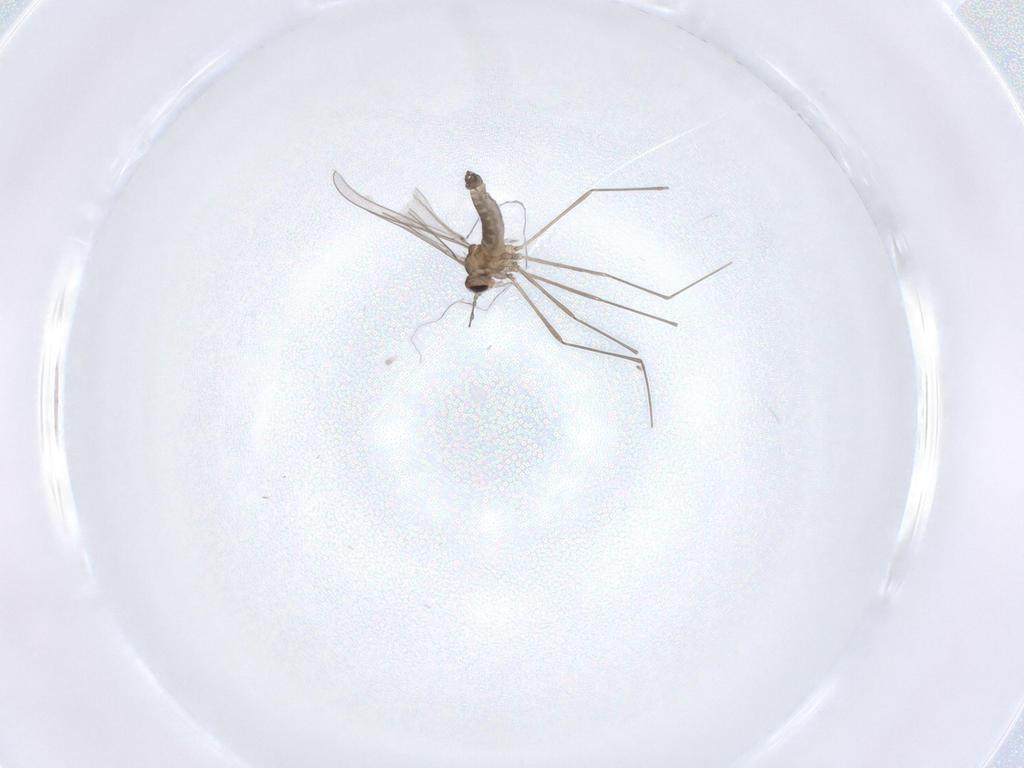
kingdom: Animalia
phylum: Arthropoda
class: Insecta
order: Diptera
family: Cecidomyiidae
